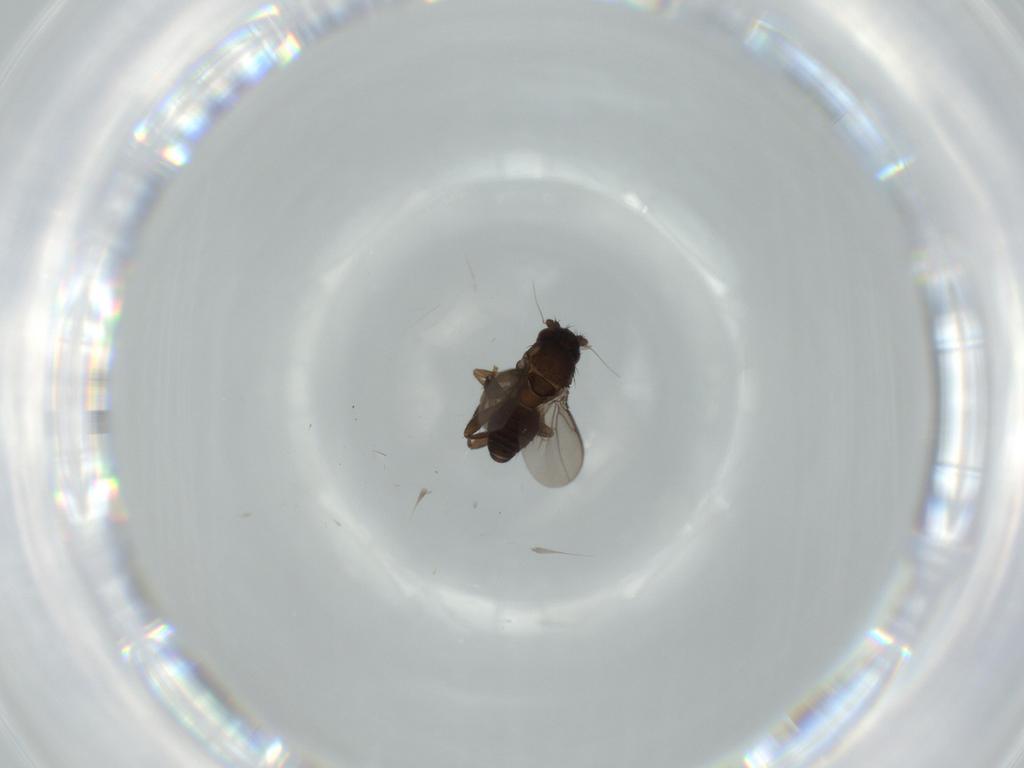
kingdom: Animalia
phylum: Arthropoda
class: Insecta
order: Diptera
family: Sphaeroceridae
